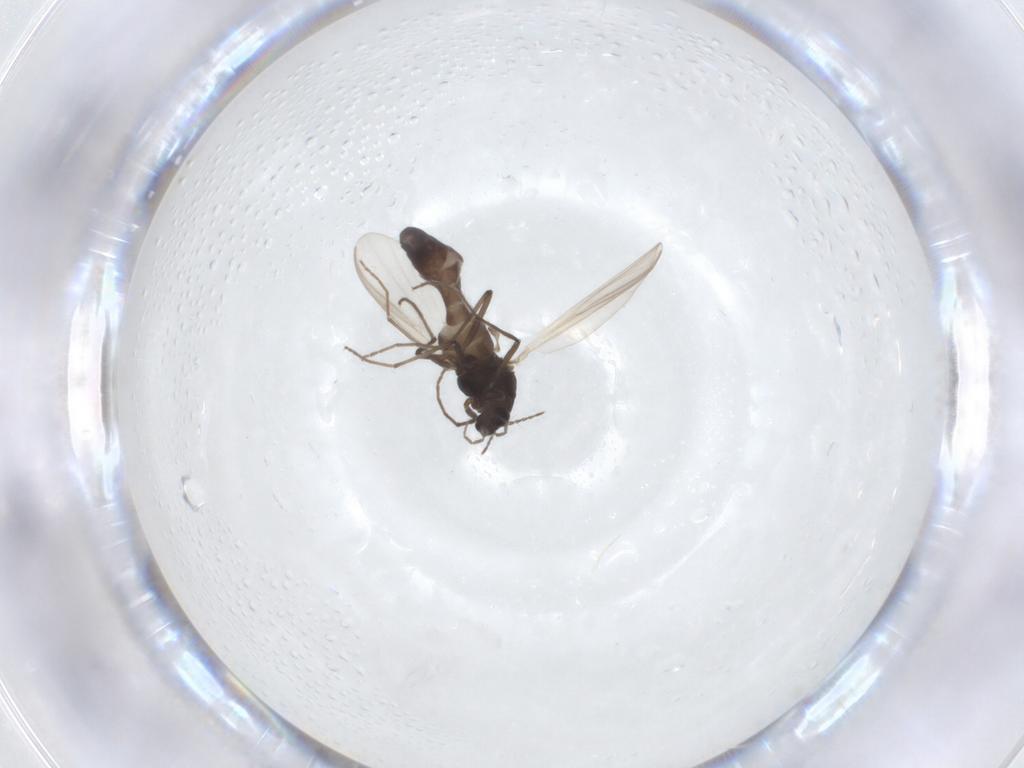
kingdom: Animalia
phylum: Arthropoda
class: Insecta
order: Diptera
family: Chironomidae
